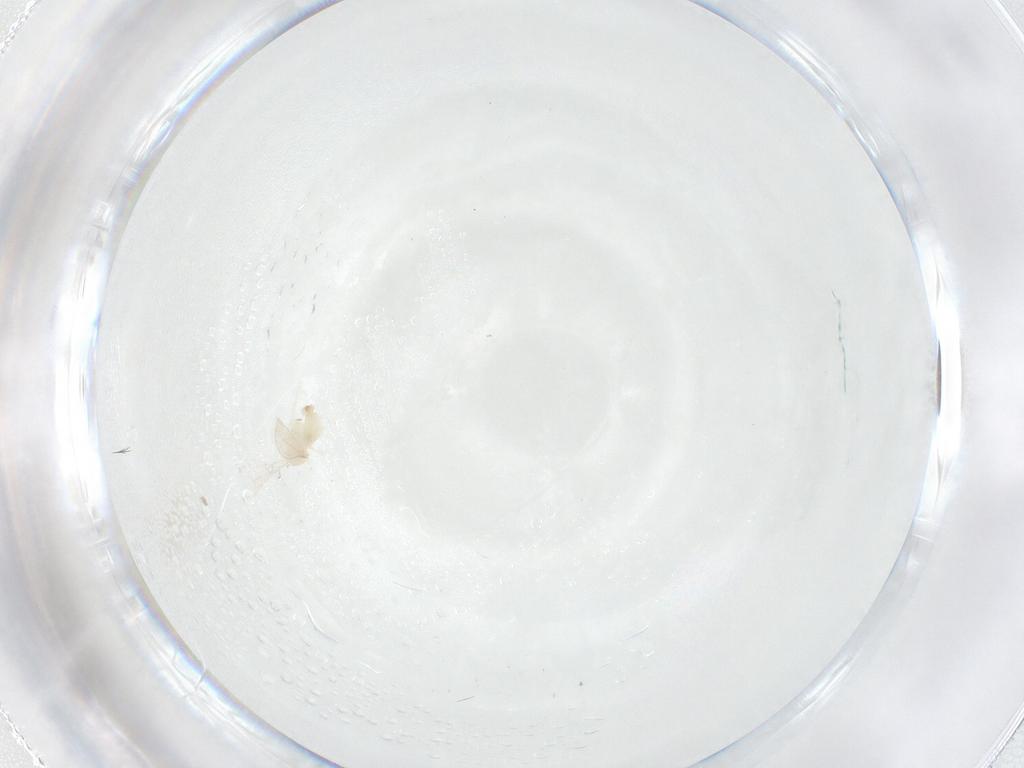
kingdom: Animalia
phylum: Arthropoda
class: Insecta
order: Diptera
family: Cecidomyiidae
